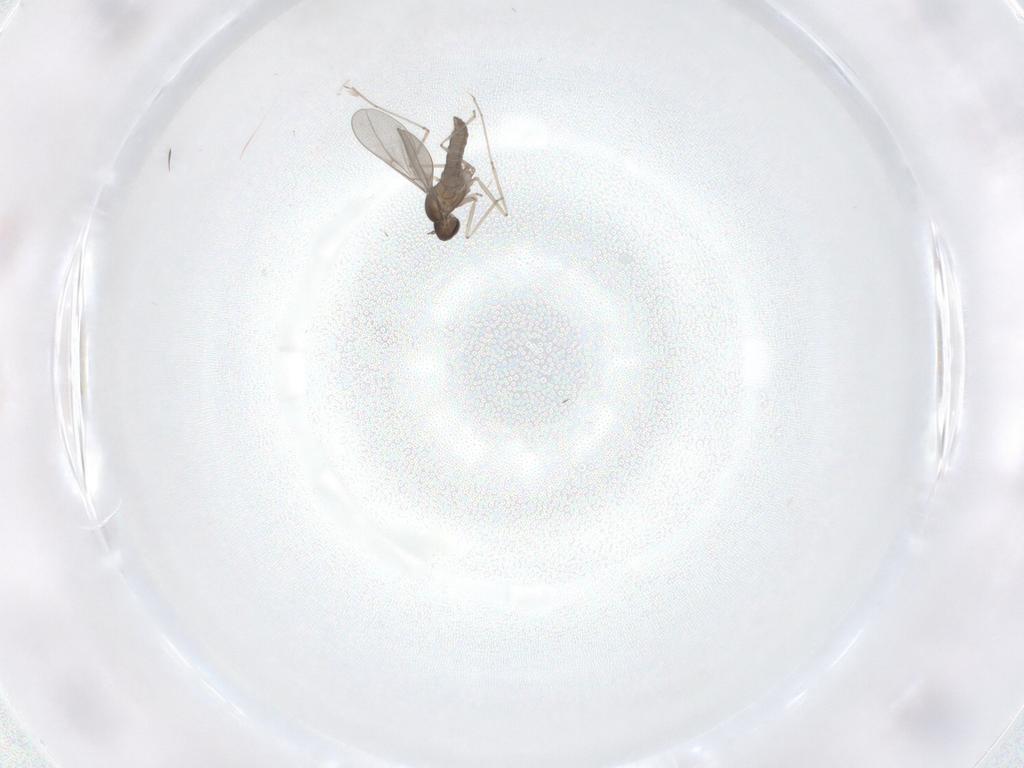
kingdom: Animalia
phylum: Arthropoda
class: Insecta
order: Diptera
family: Cecidomyiidae
